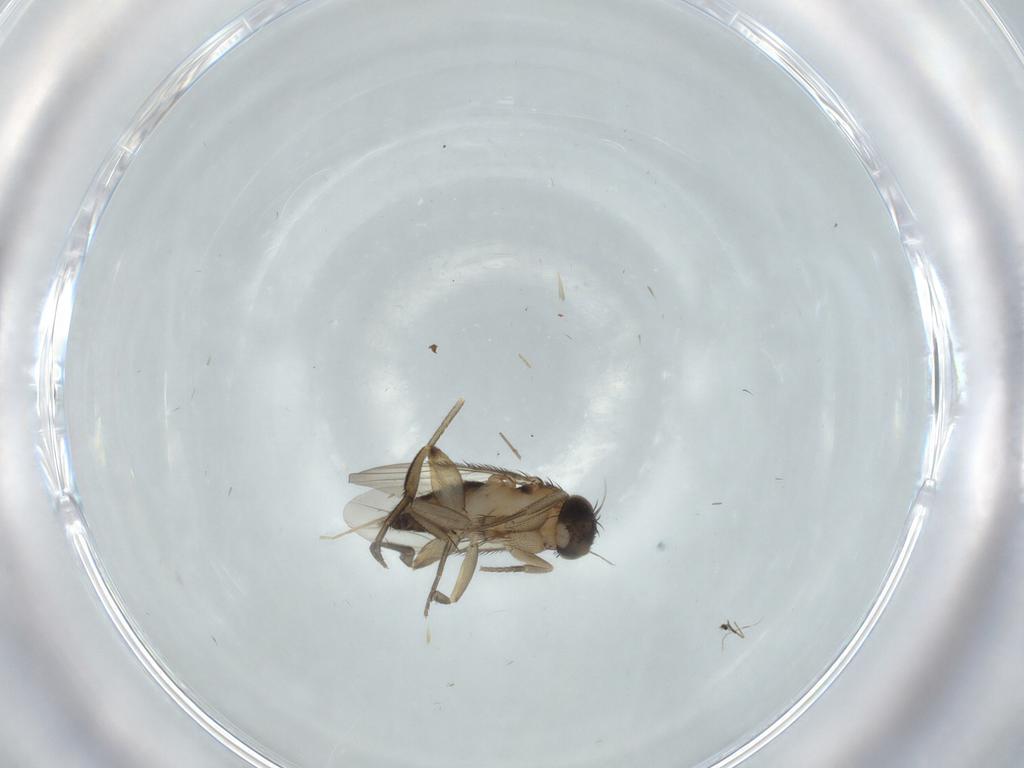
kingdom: Animalia
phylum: Arthropoda
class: Insecta
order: Diptera
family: Phoridae
